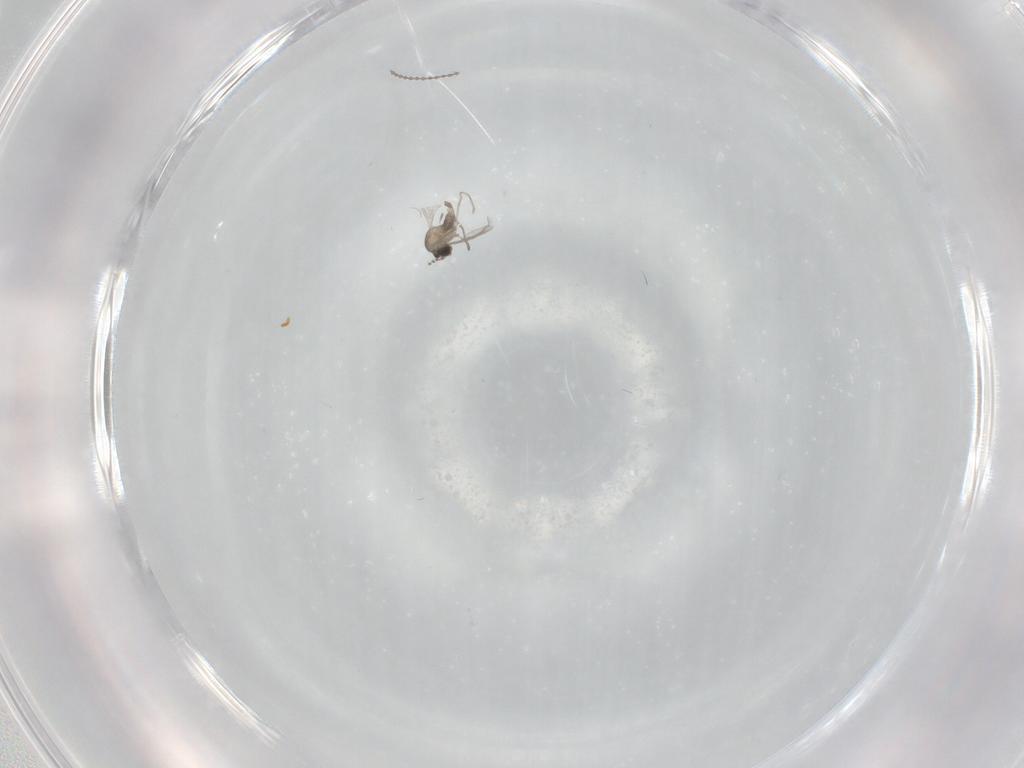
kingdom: Animalia
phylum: Arthropoda
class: Insecta
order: Diptera
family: Cecidomyiidae
